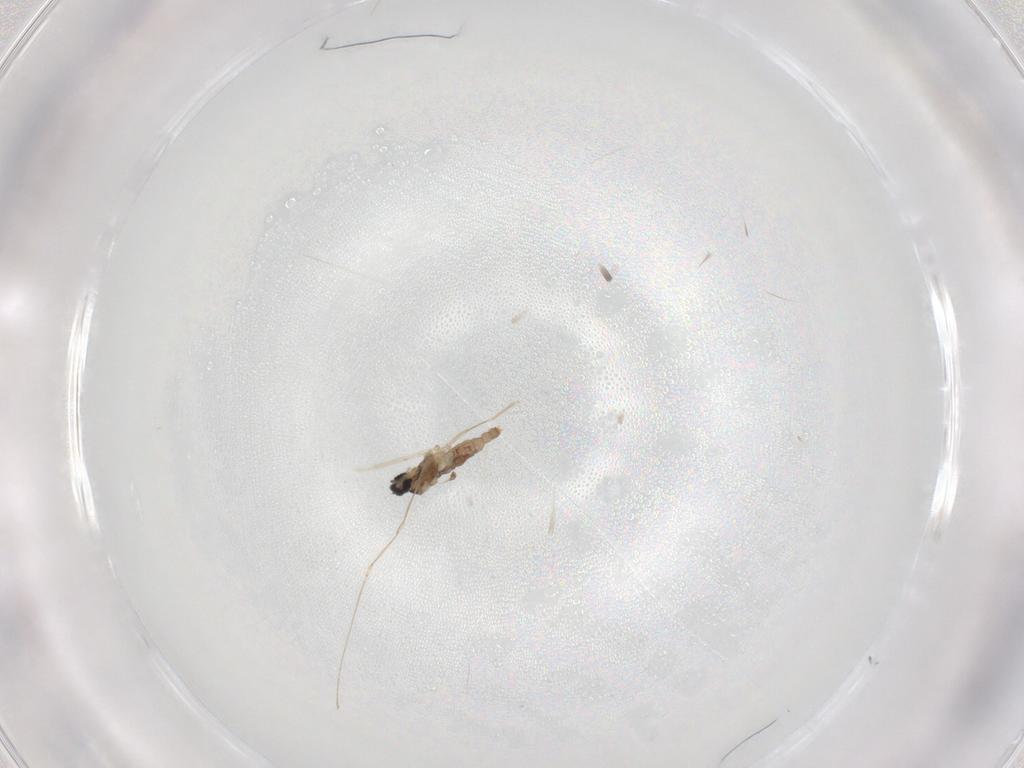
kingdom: Animalia
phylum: Arthropoda
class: Insecta
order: Diptera
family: Cecidomyiidae
